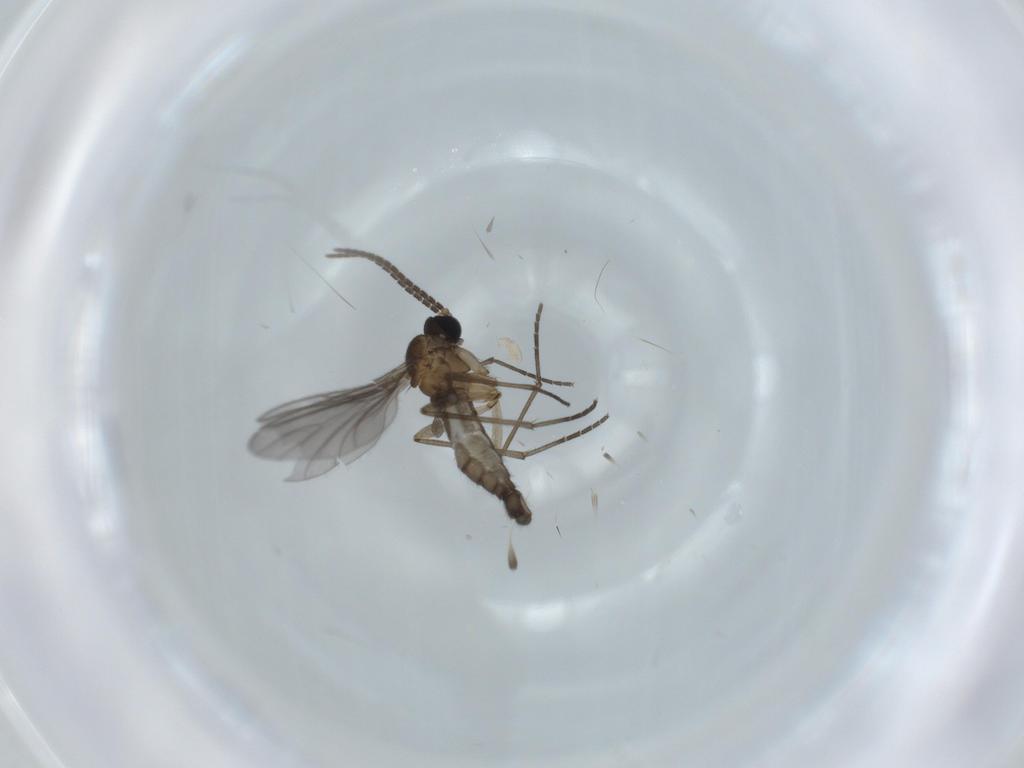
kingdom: Animalia
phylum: Arthropoda
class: Insecta
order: Diptera
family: Sciaridae
